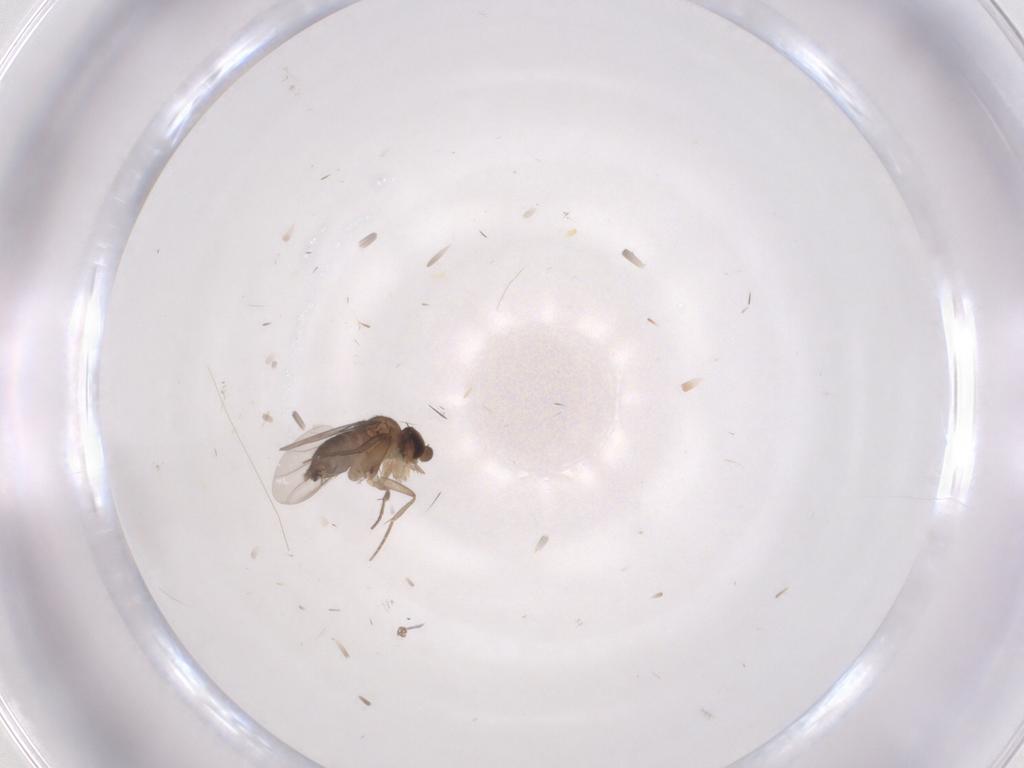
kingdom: Animalia
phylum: Arthropoda
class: Insecta
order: Diptera
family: Phoridae
